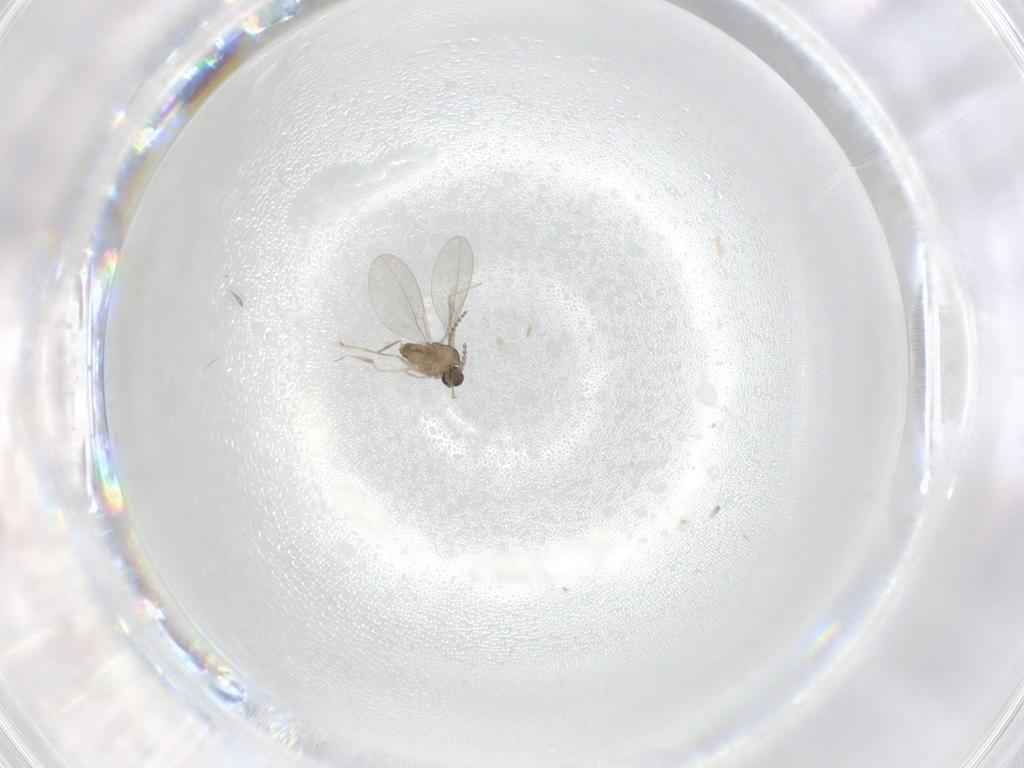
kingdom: Animalia
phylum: Arthropoda
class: Insecta
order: Diptera
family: Cecidomyiidae
